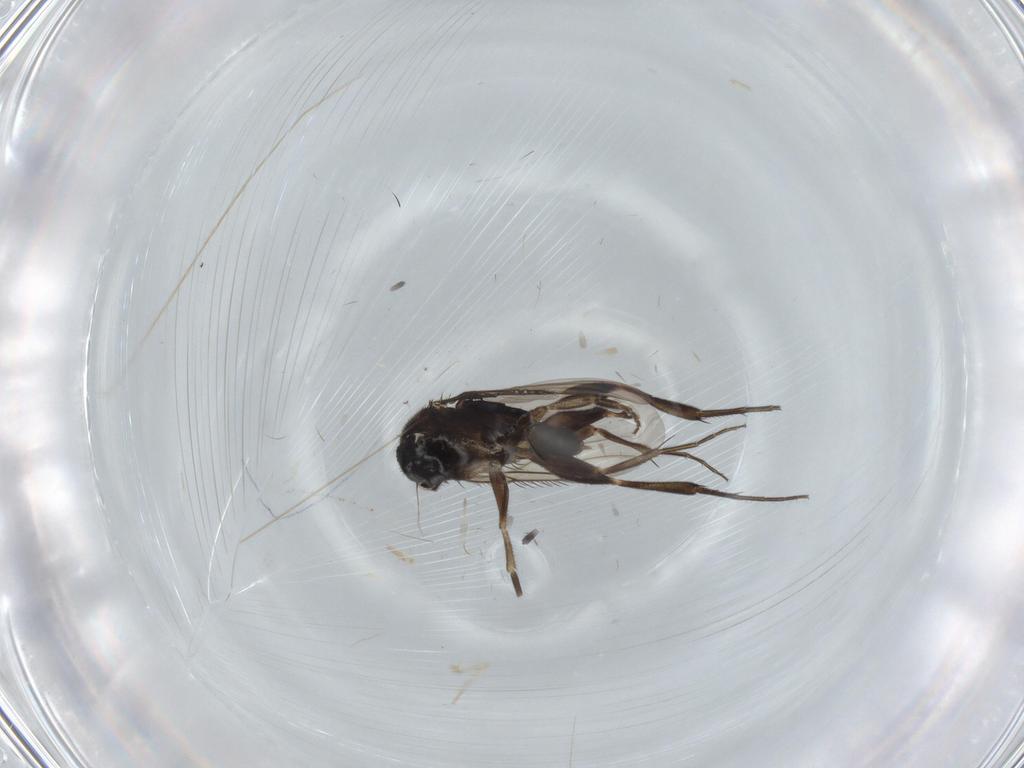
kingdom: Animalia
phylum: Arthropoda
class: Insecta
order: Diptera
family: Phoridae
